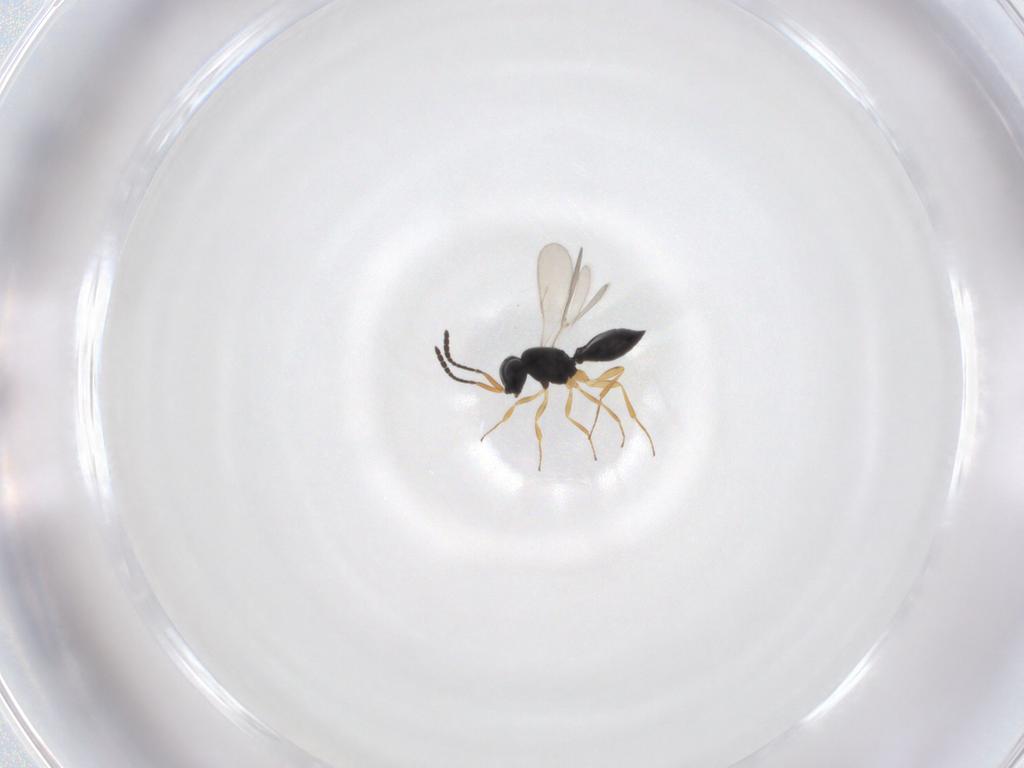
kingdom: Animalia
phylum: Arthropoda
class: Insecta
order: Hymenoptera
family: Scelionidae
